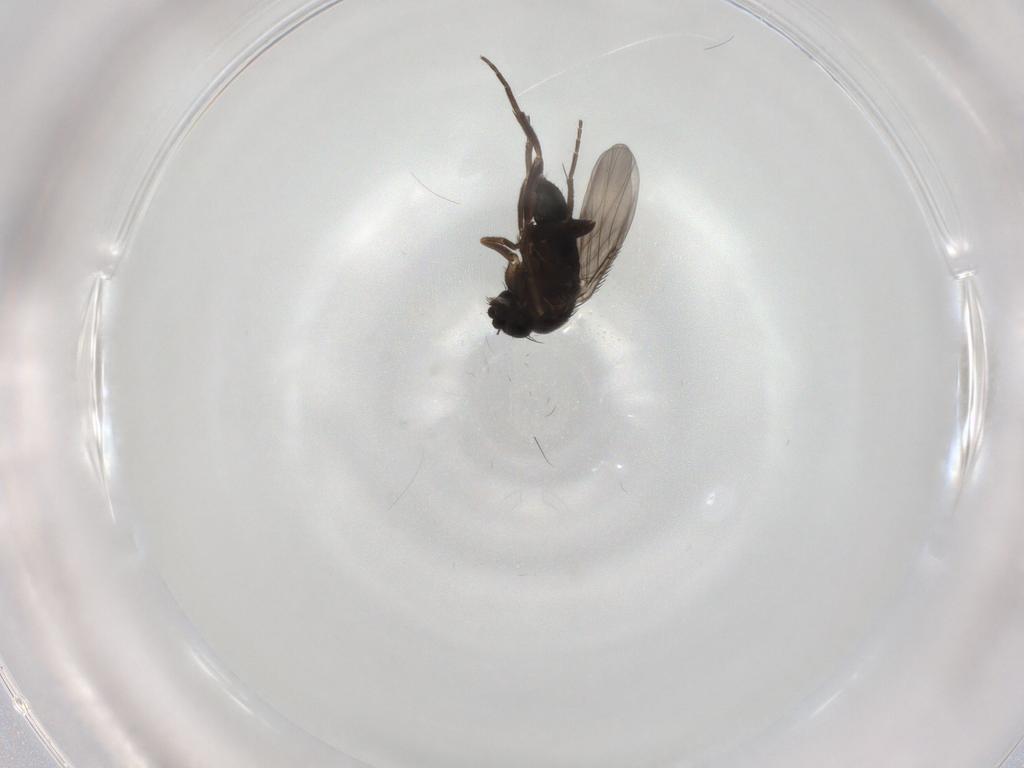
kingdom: Animalia
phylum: Arthropoda
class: Insecta
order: Diptera
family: Phoridae
